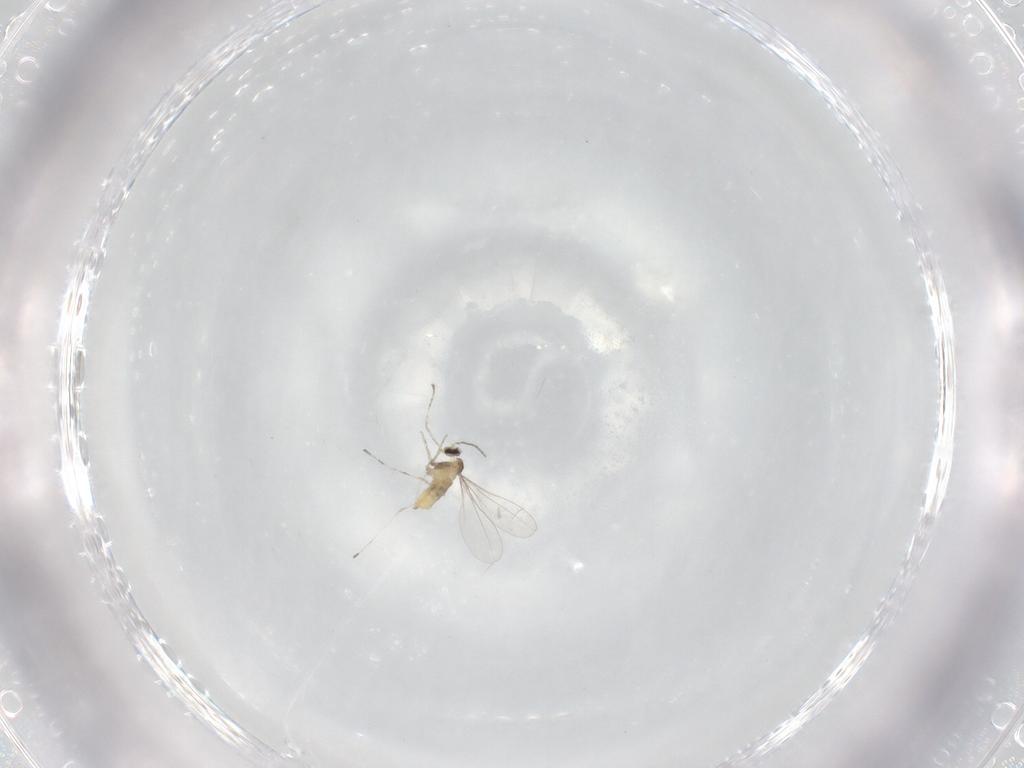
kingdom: Animalia
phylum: Arthropoda
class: Insecta
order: Diptera
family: Cecidomyiidae
